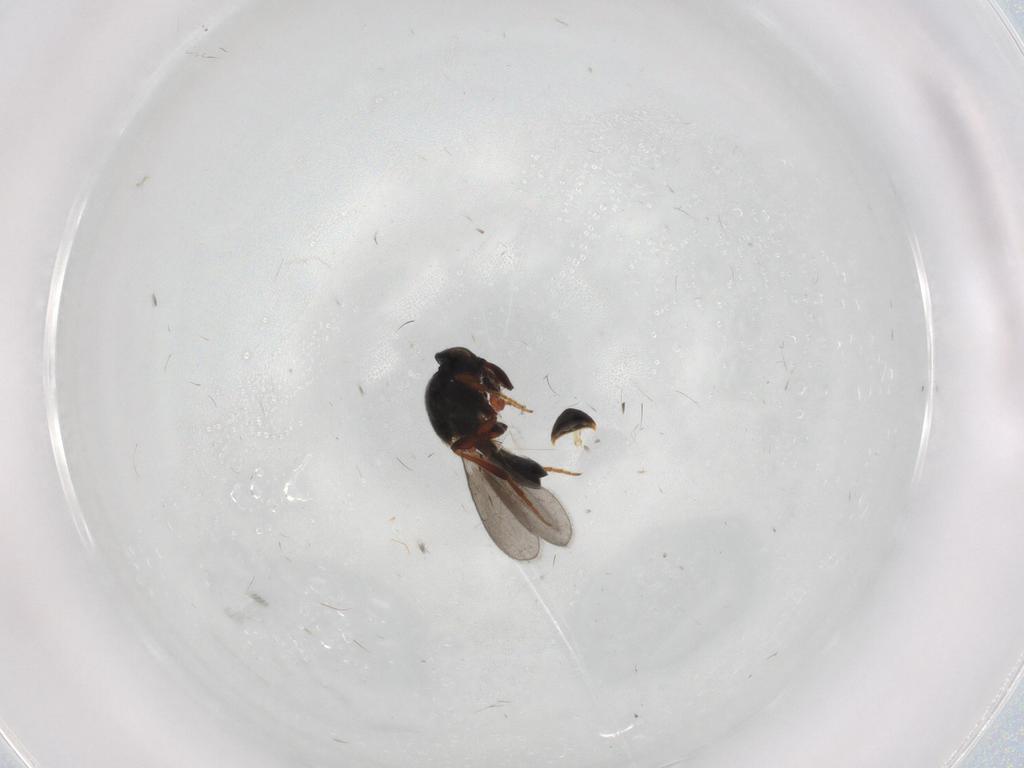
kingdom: Animalia
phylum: Arthropoda
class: Insecta
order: Hymenoptera
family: Platygastridae
